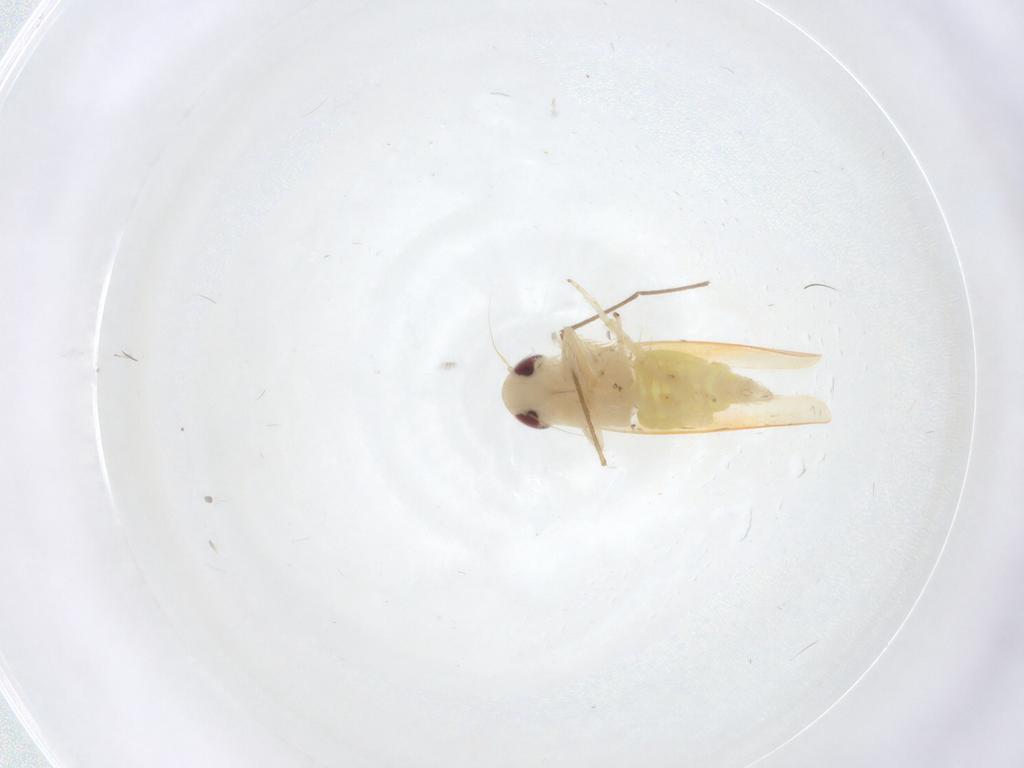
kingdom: Animalia
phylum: Arthropoda
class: Insecta
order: Hemiptera
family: Cicadellidae
